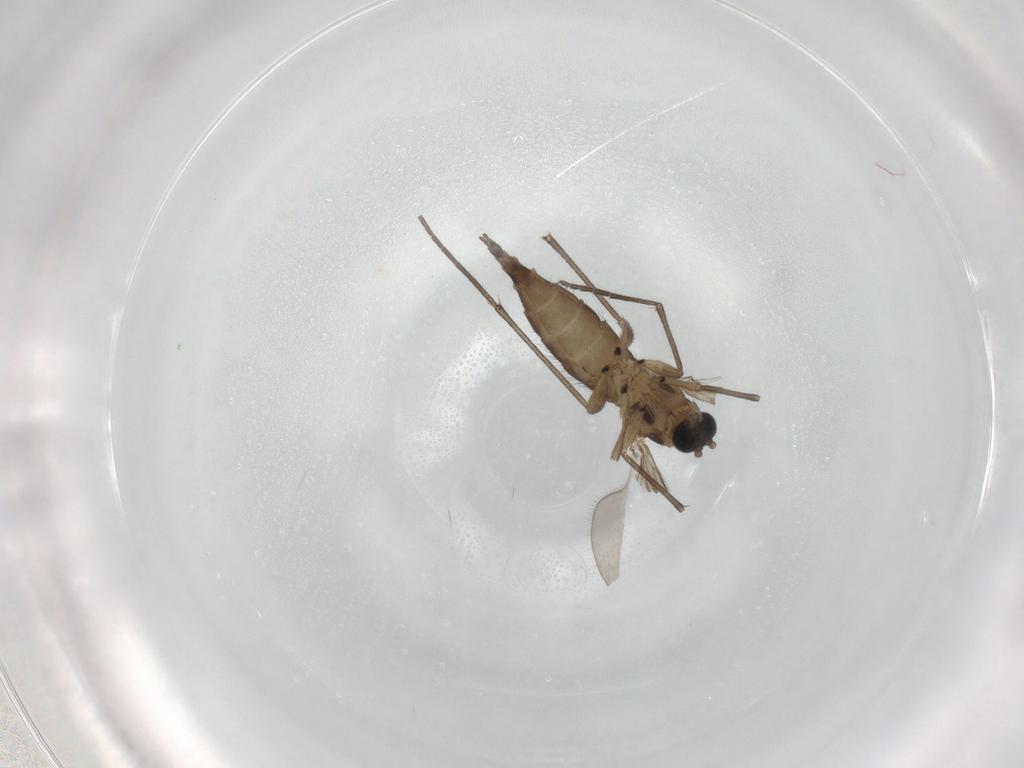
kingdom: Animalia
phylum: Arthropoda
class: Insecta
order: Diptera
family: Sciaridae
